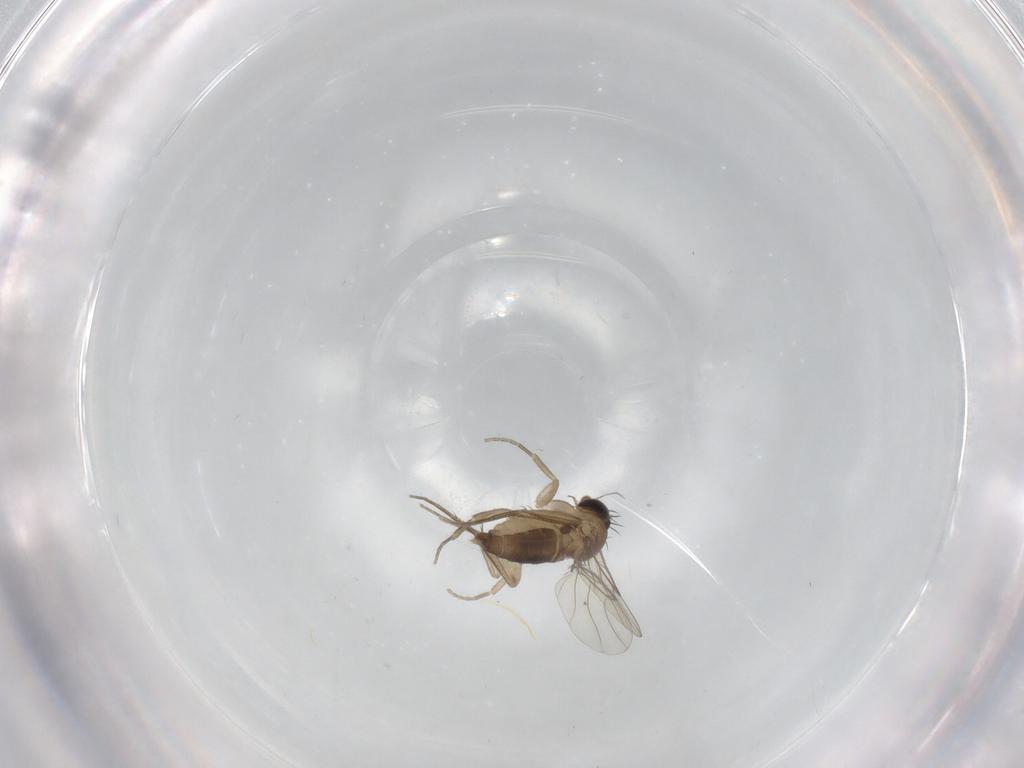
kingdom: Animalia
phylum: Arthropoda
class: Insecta
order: Diptera
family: Phoridae
